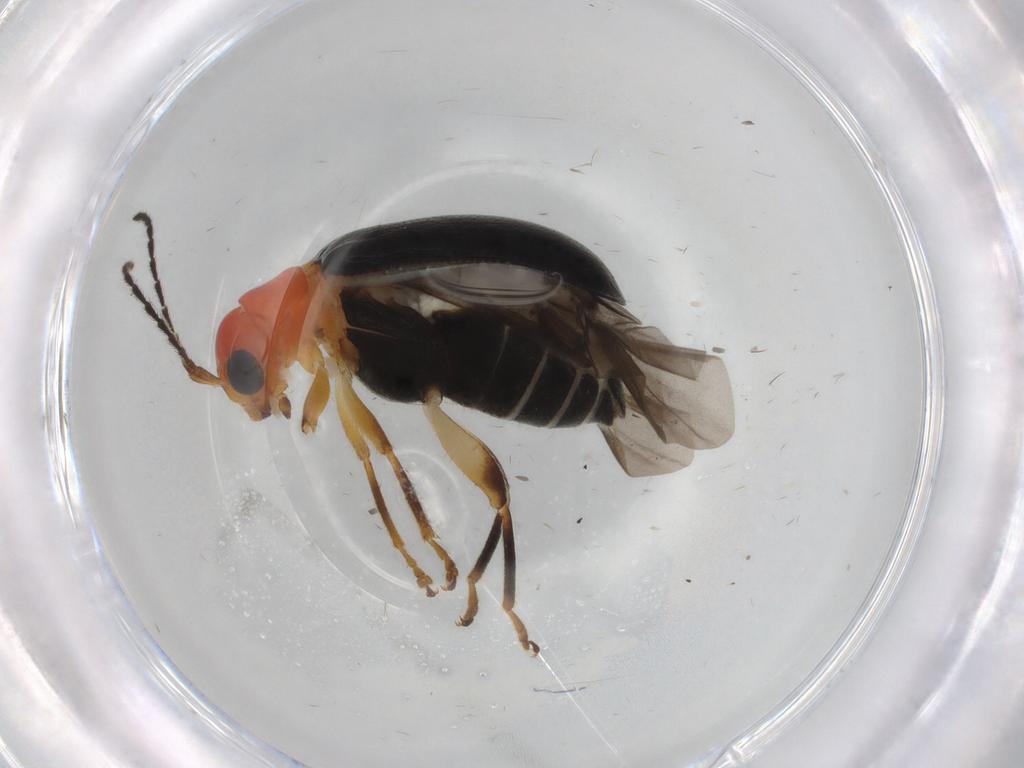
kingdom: Animalia
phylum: Arthropoda
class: Insecta
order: Coleoptera
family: Chrysomelidae
